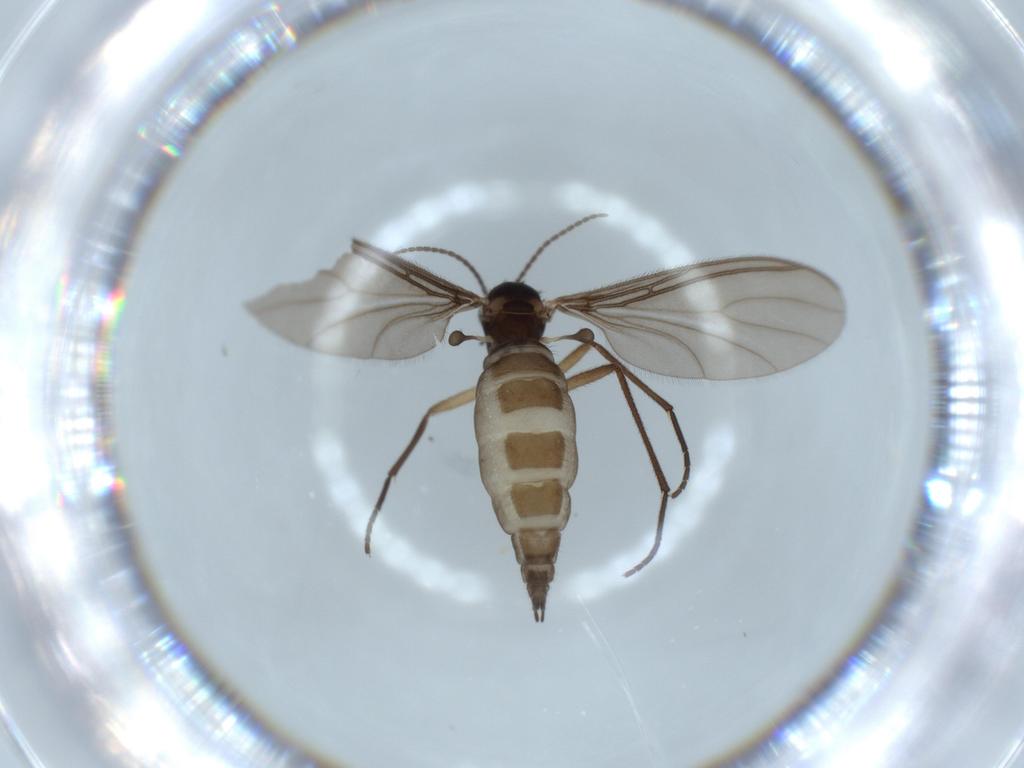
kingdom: Animalia
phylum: Arthropoda
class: Insecta
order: Diptera
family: Sciaridae
